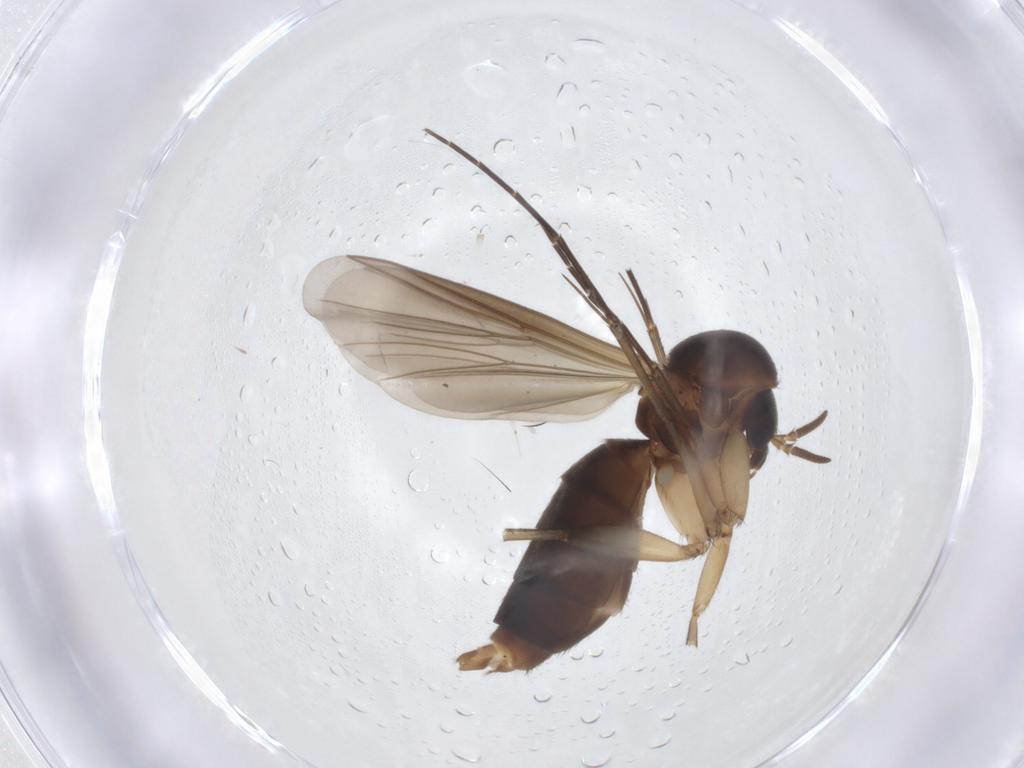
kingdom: Animalia
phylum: Arthropoda
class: Insecta
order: Diptera
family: Mycetophilidae
